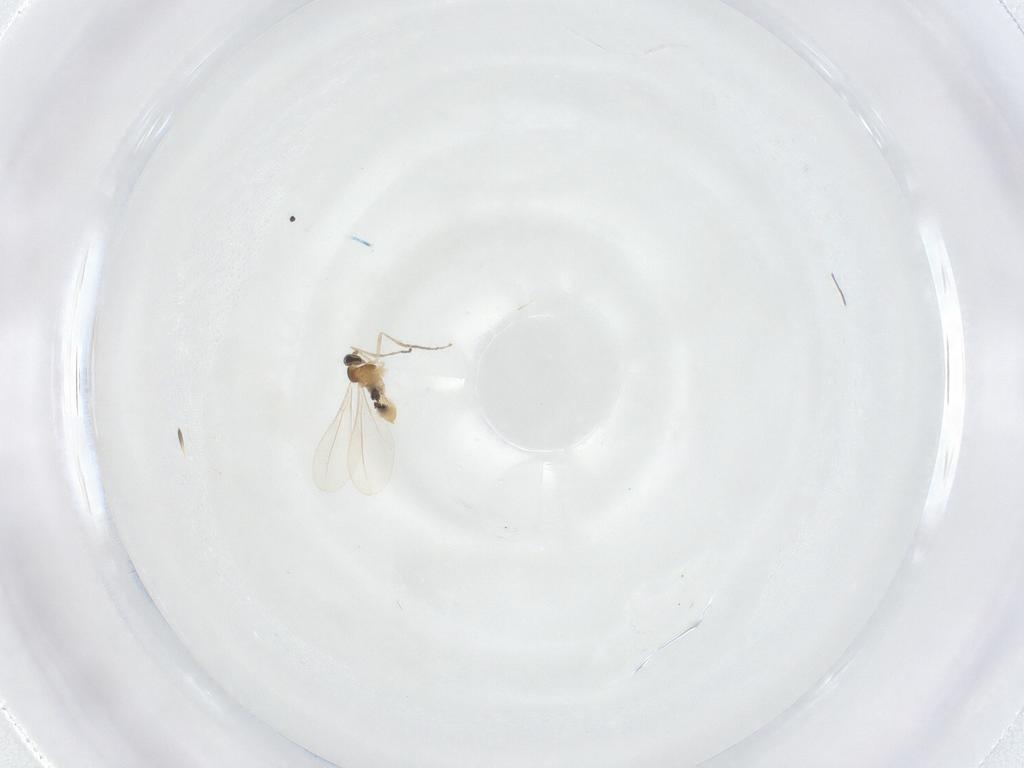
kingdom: Animalia
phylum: Arthropoda
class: Insecta
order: Diptera
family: Cecidomyiidae
